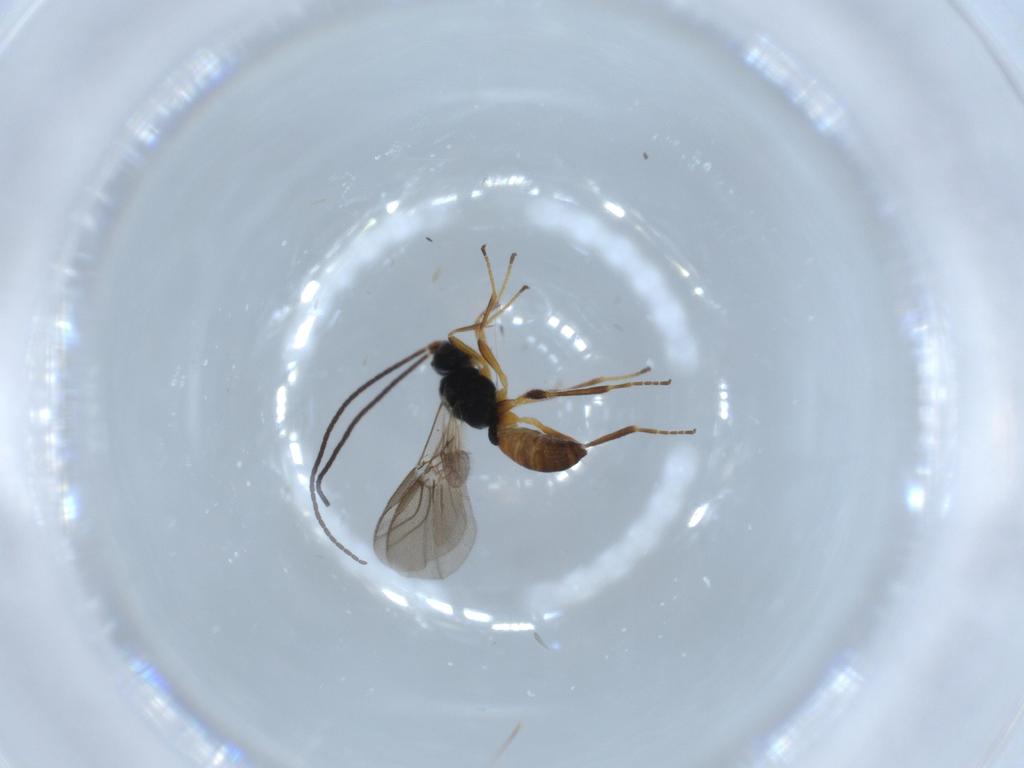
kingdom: Animalia
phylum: Arthropoda
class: Insecta
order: Hymenoptera
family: Braconidae
